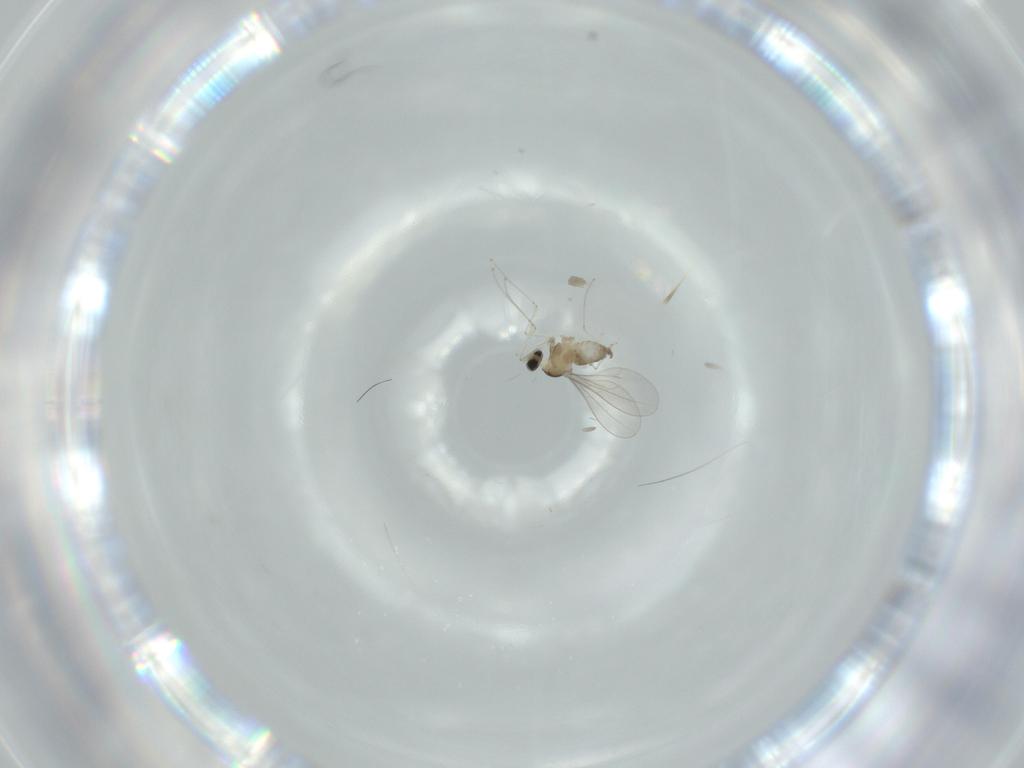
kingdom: Animalia
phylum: Arthropoda
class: Insecta
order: Diptera
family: Cecidomyiidae
